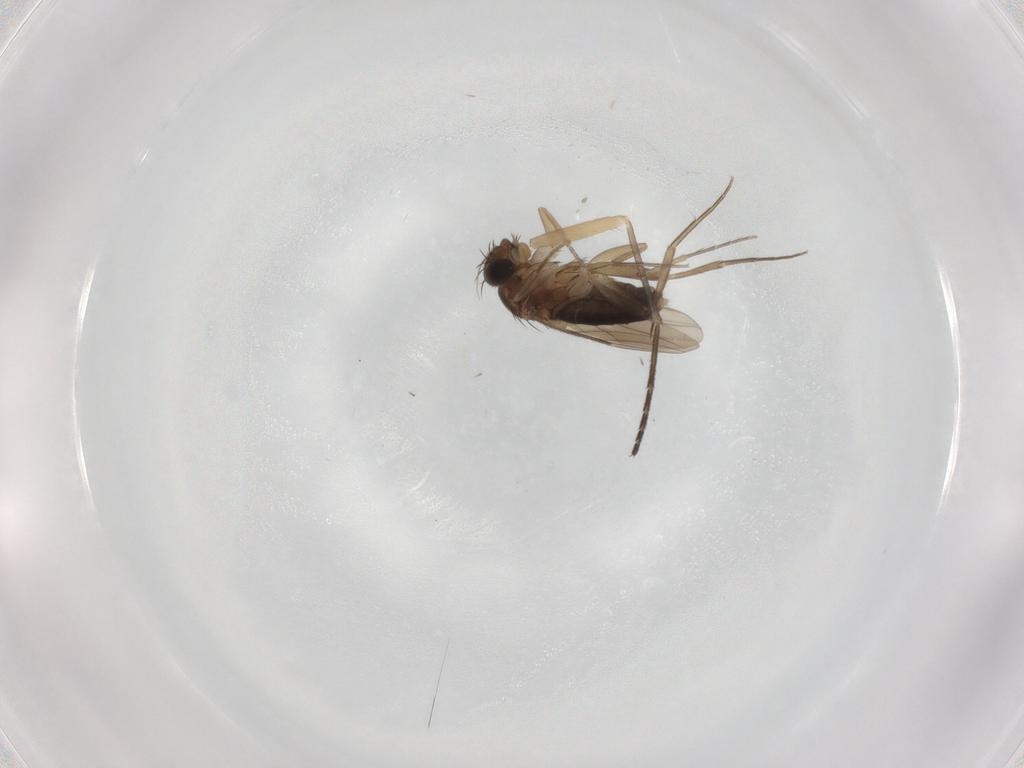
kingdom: Animalia
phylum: Arthropoda
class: Insecta
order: Diptera
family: Phoridae
